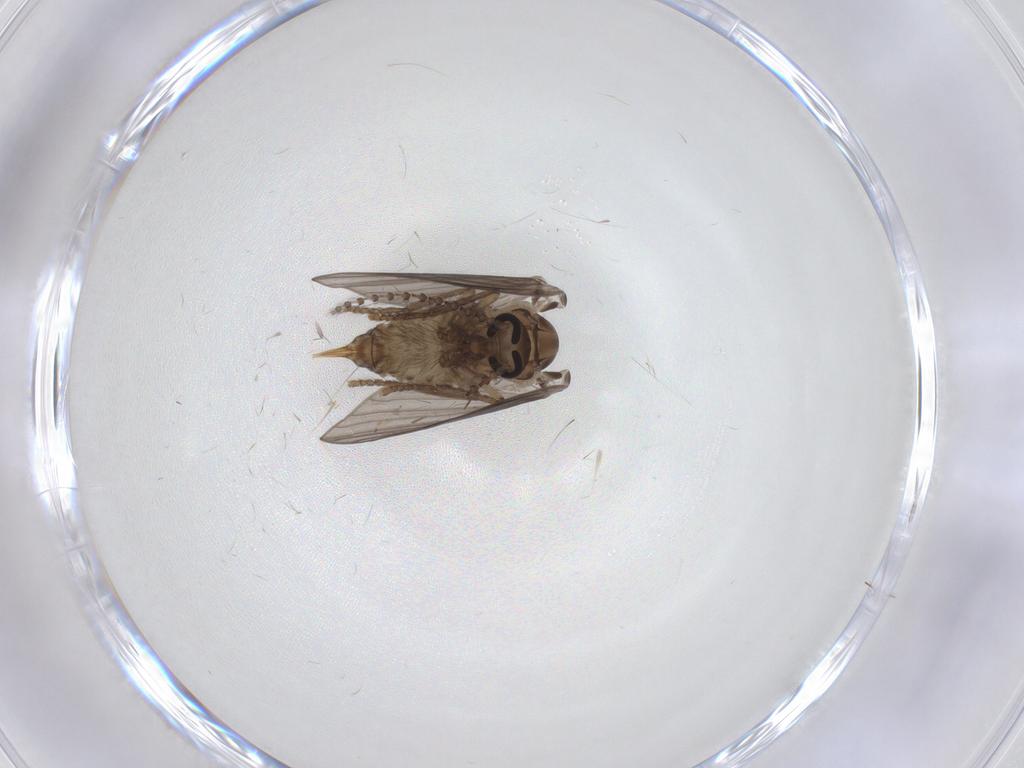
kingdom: Animalia
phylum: Arthropoda
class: Insecta
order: Diptera
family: Psychodidae
